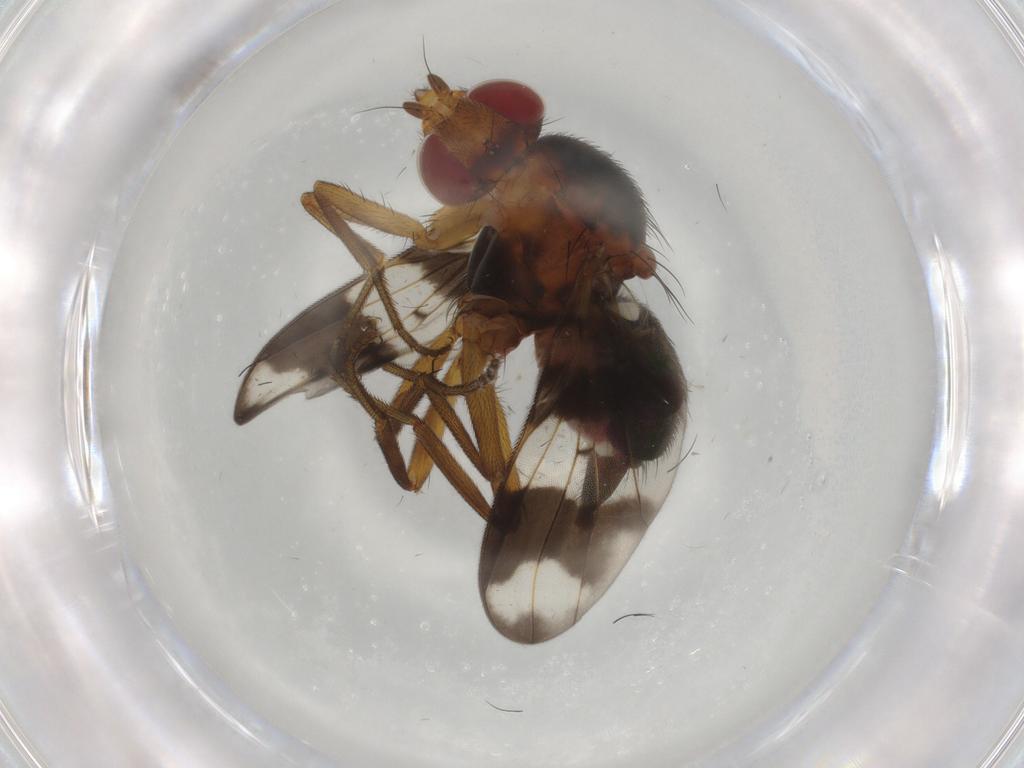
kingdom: Animalia
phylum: Arthropoda
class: Insecta
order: Diptera
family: Richardiidae
